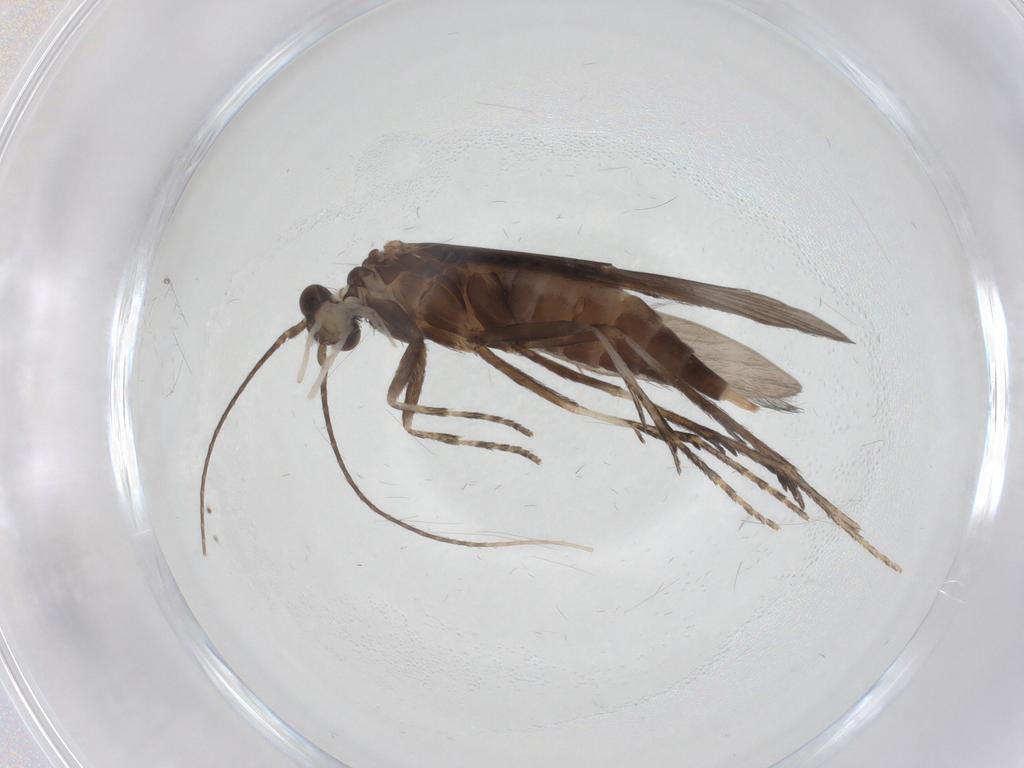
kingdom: Animalia
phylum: Arthropoda
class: Insecta
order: Trichoptera
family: Xiphocentronidae
